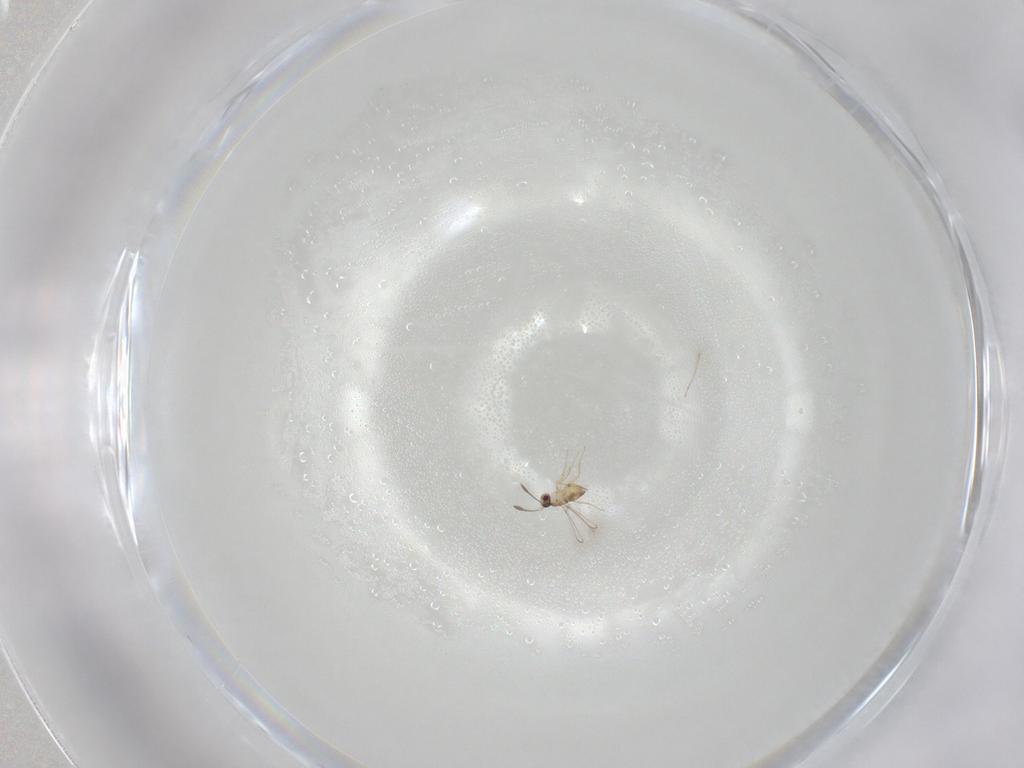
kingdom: Animalia
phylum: Arthropoda
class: Insecta
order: Hymenoptera
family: Mymaridae
